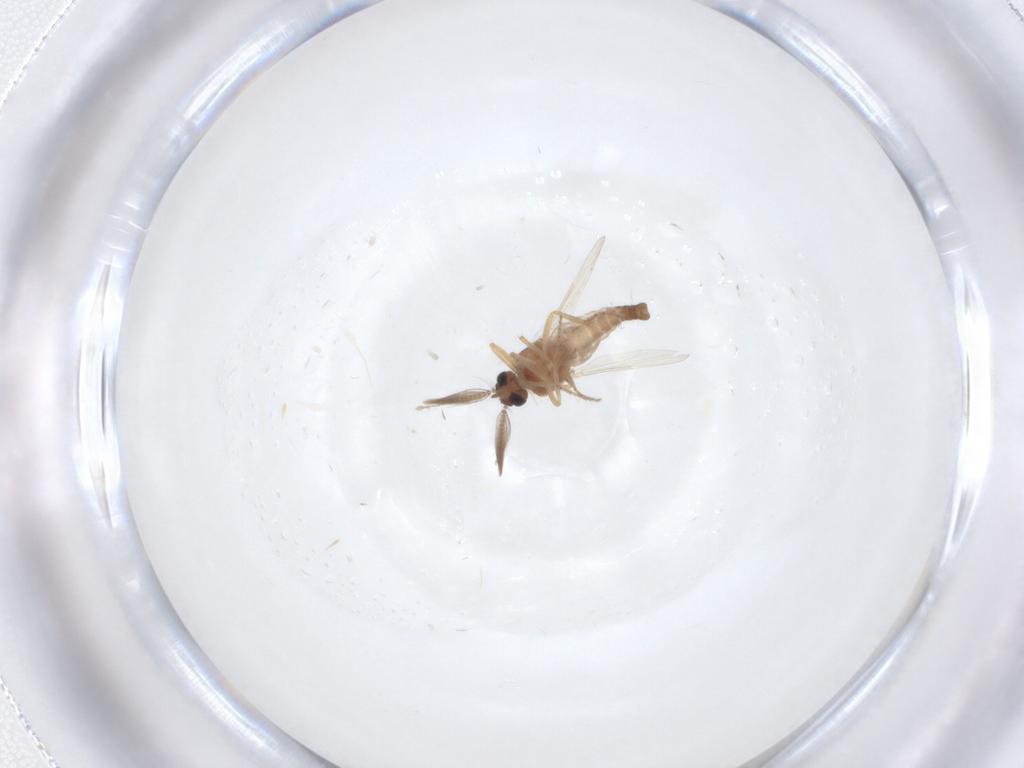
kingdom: Animalia
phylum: Arthropoda
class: Insecta
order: Diptera
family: Ceratopogonidae
